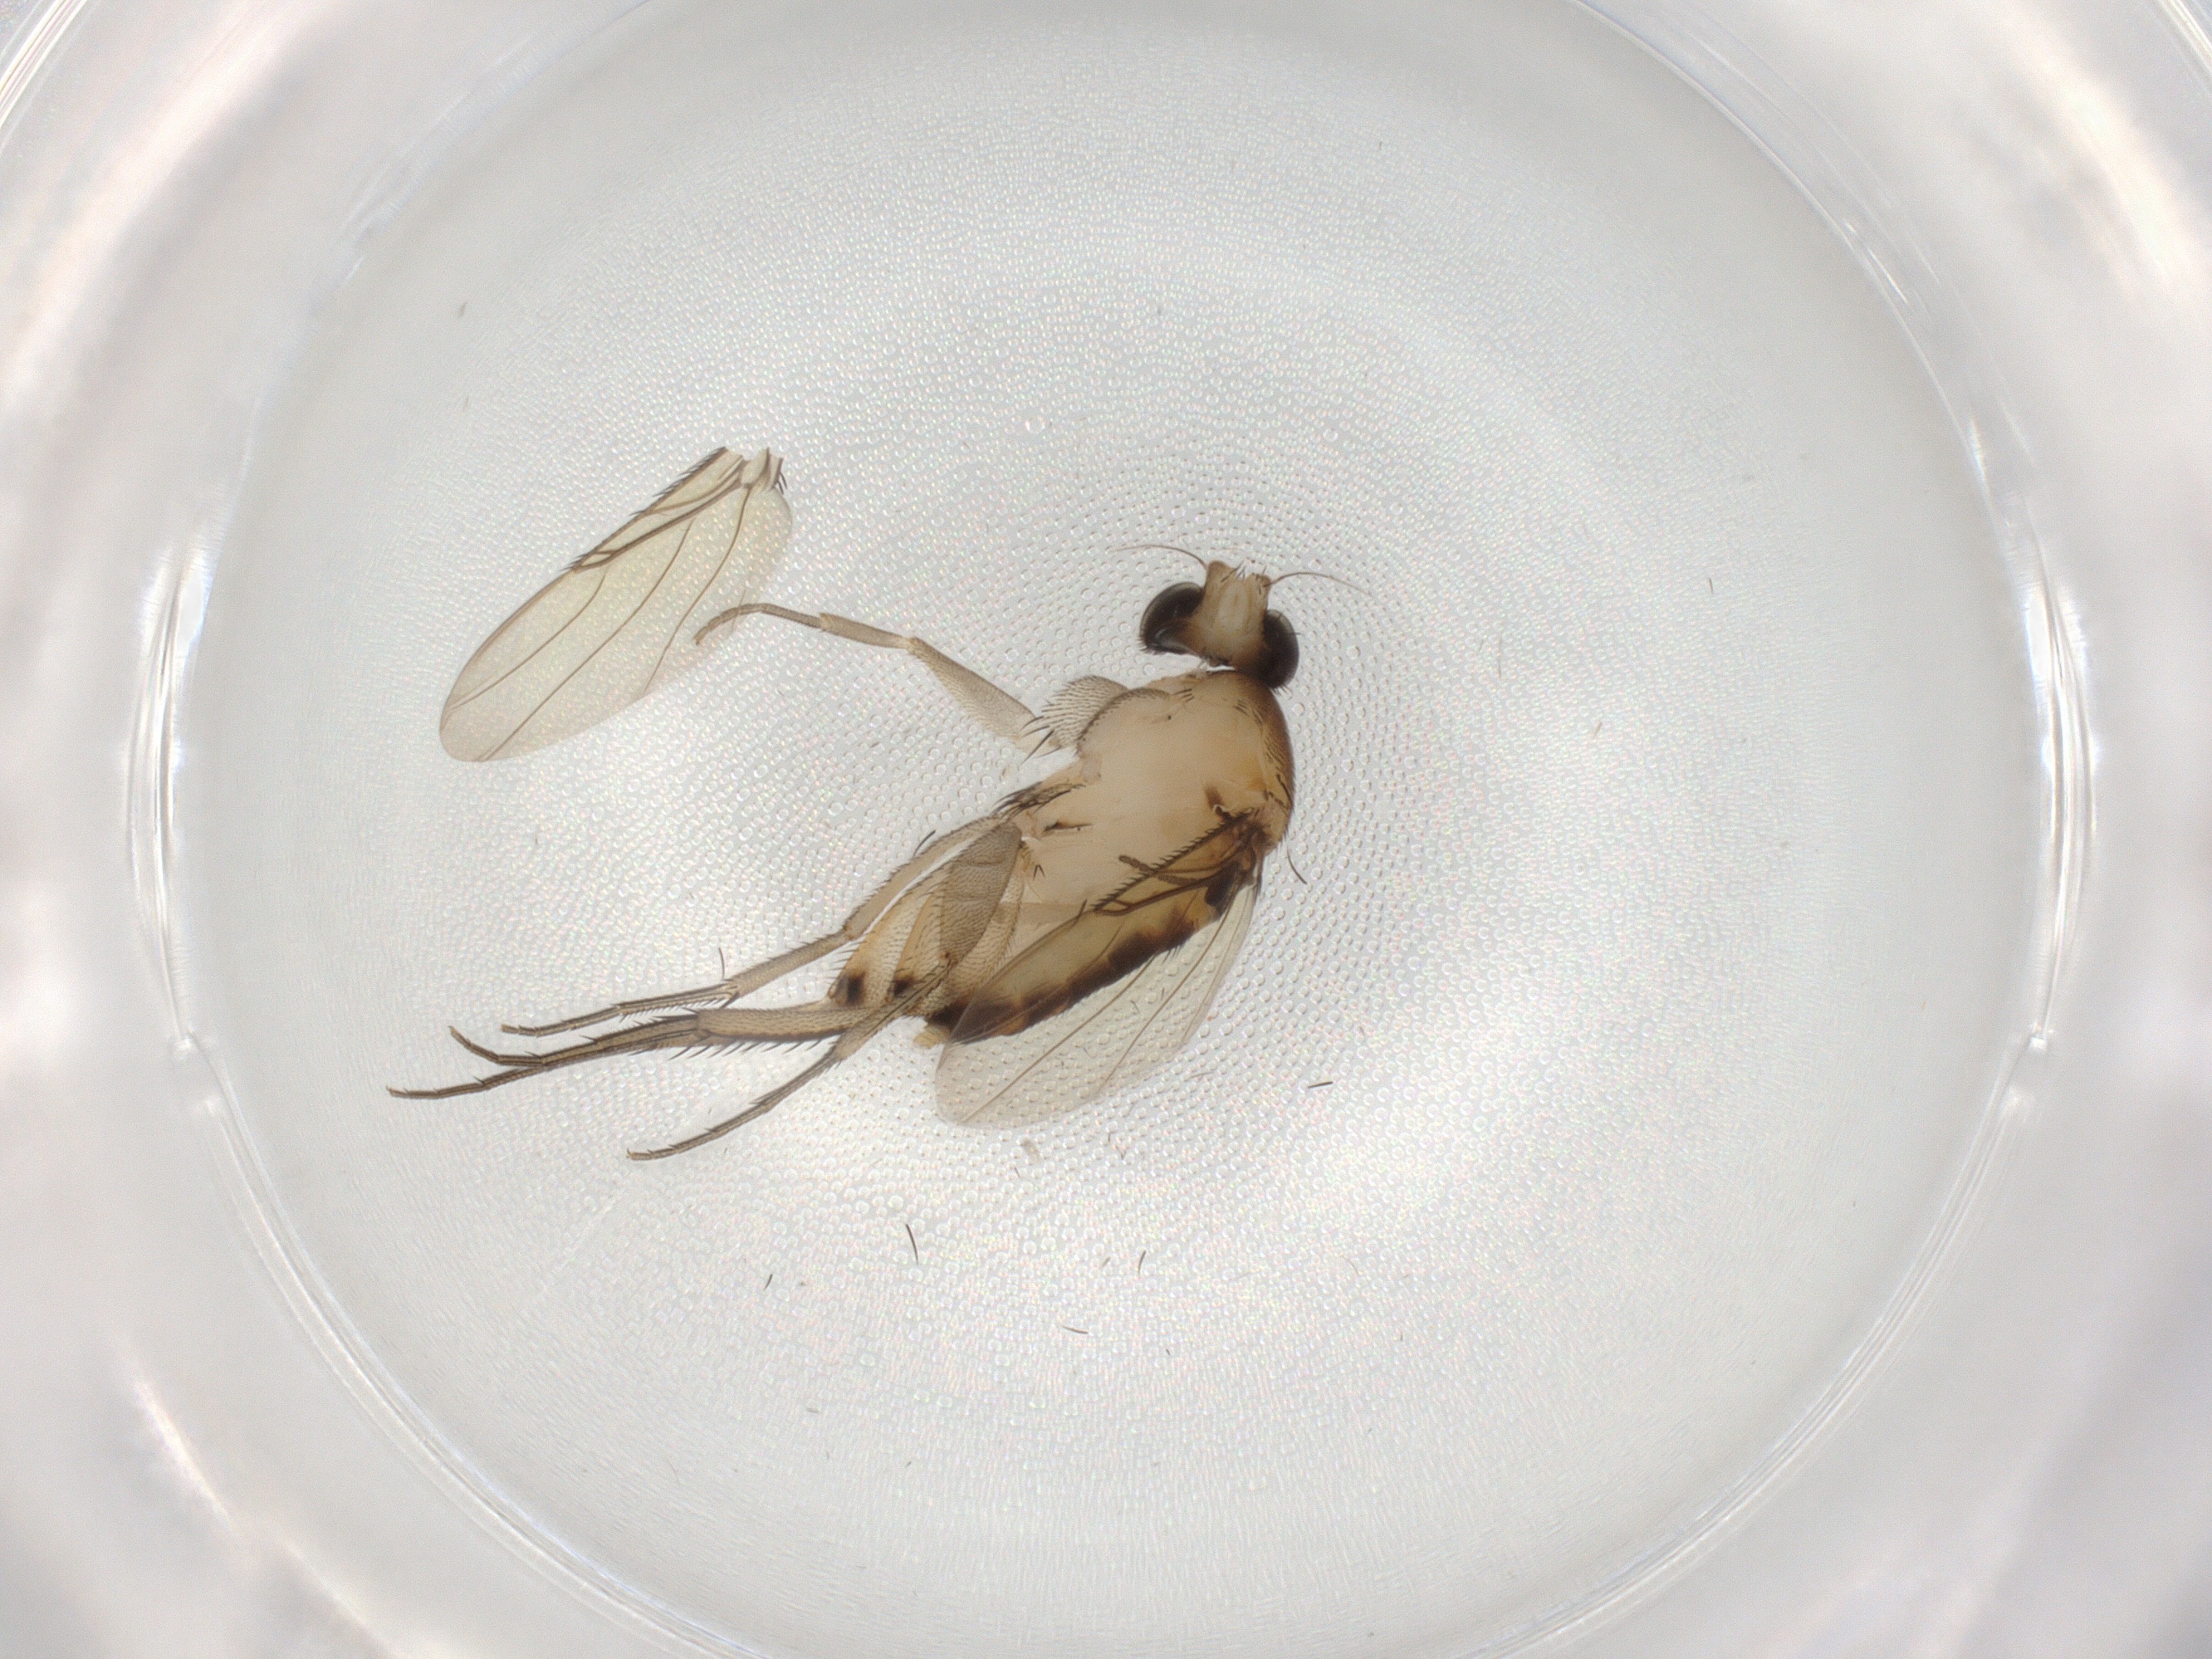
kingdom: Animalia
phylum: Arthropoda
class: Insecta
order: Diptera
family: Phoridae
